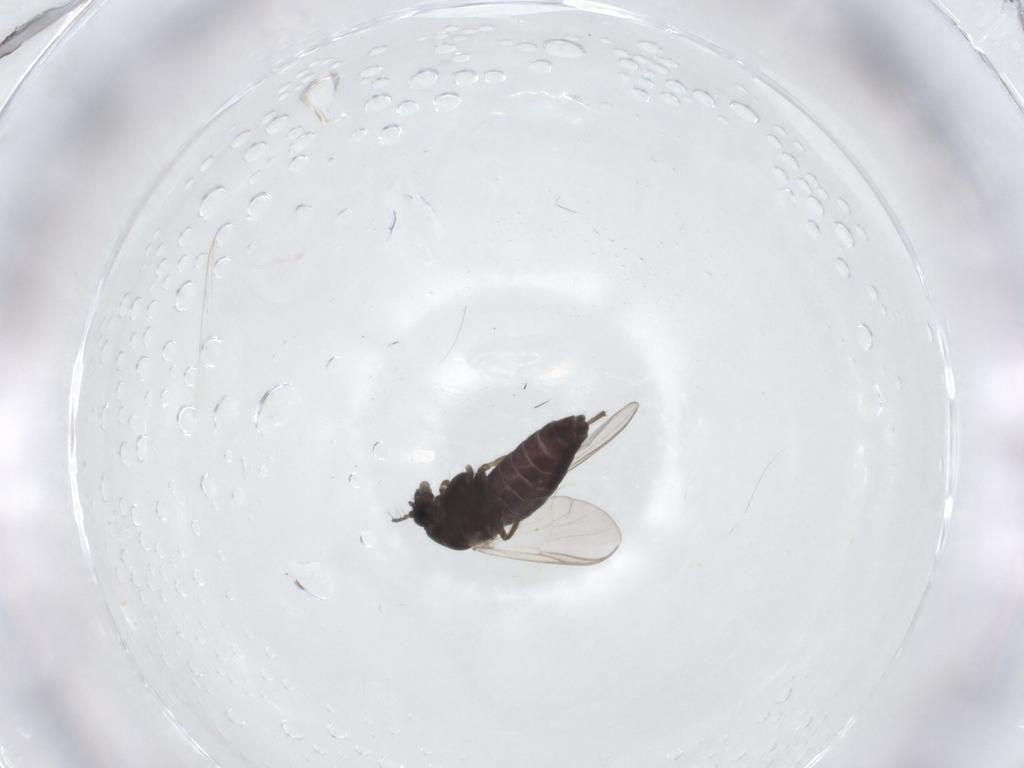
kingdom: Animalia
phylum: Arthropoda
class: Insecta
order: Diptera
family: Chironomidae
